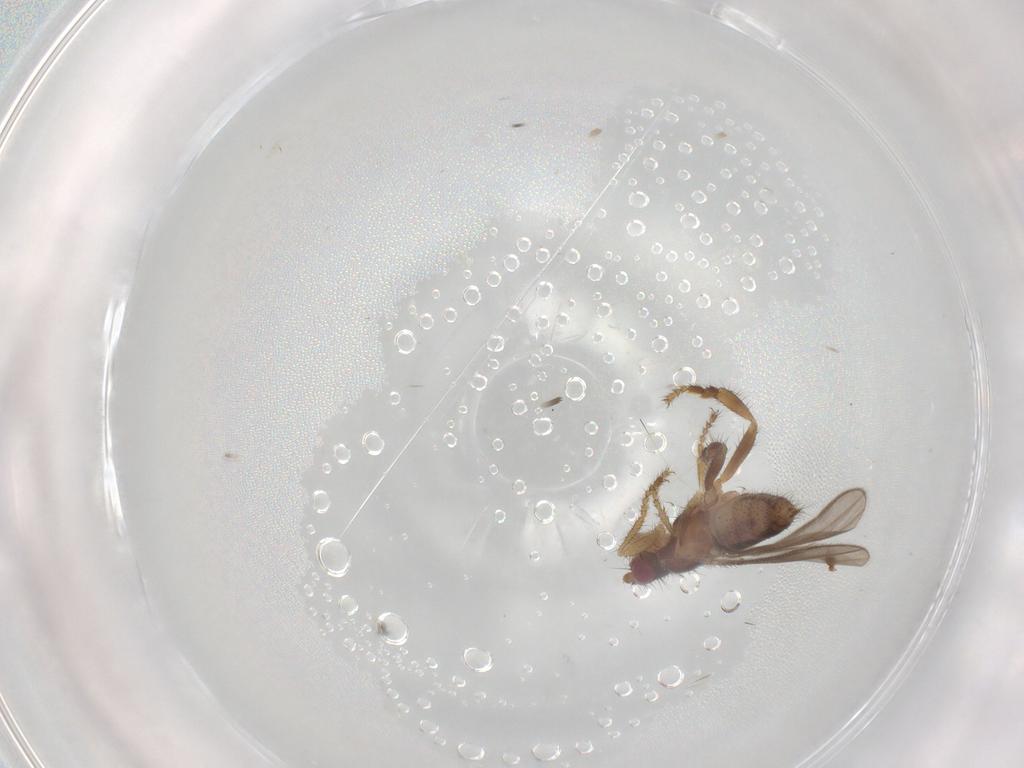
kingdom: Animalia
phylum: Arthropoda
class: Insecta
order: Diptera
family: Sphaeroceridae
